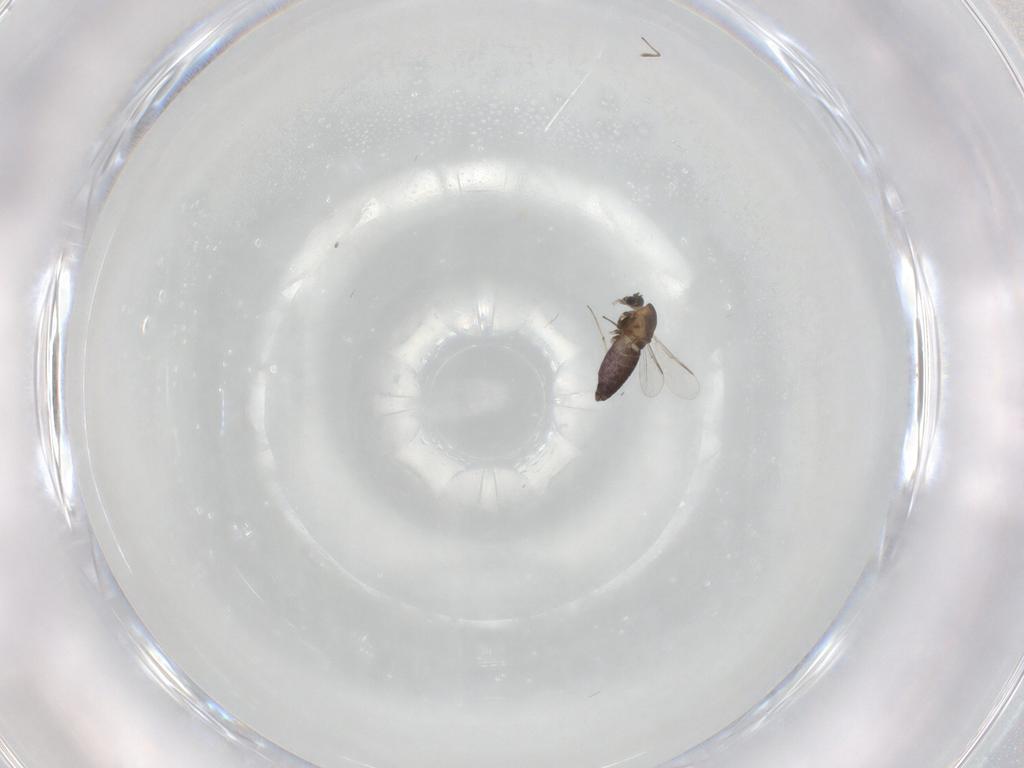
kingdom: Animalia
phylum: Arthropoda
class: Insecta
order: Diptera
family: Chironomidae
